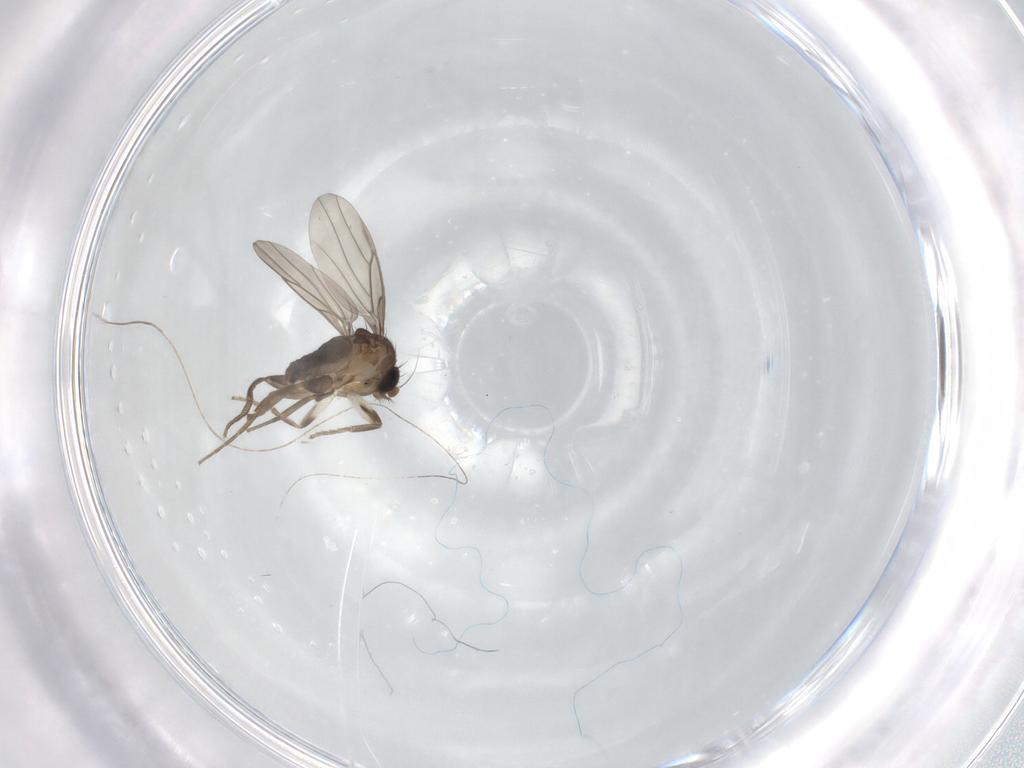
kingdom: Animalia
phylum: Arthropoda
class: Insecta
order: Diptera
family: Phoridae
